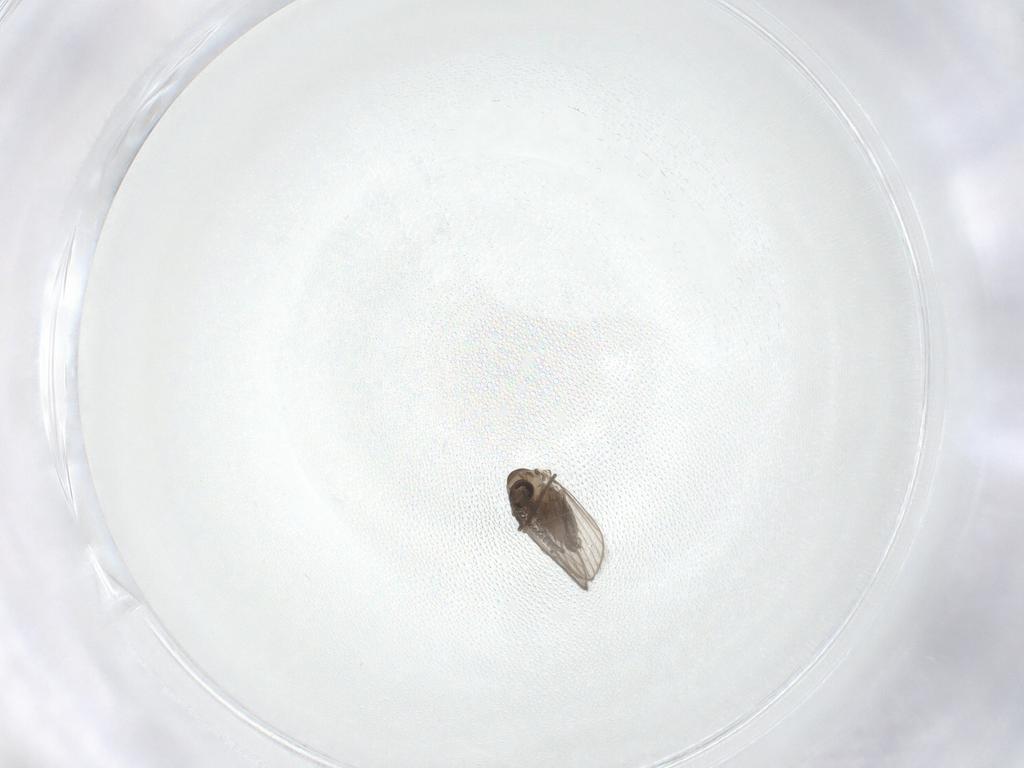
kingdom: Animalia
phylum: Arthropoda
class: Insecta
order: Diptera
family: Psychodidae
